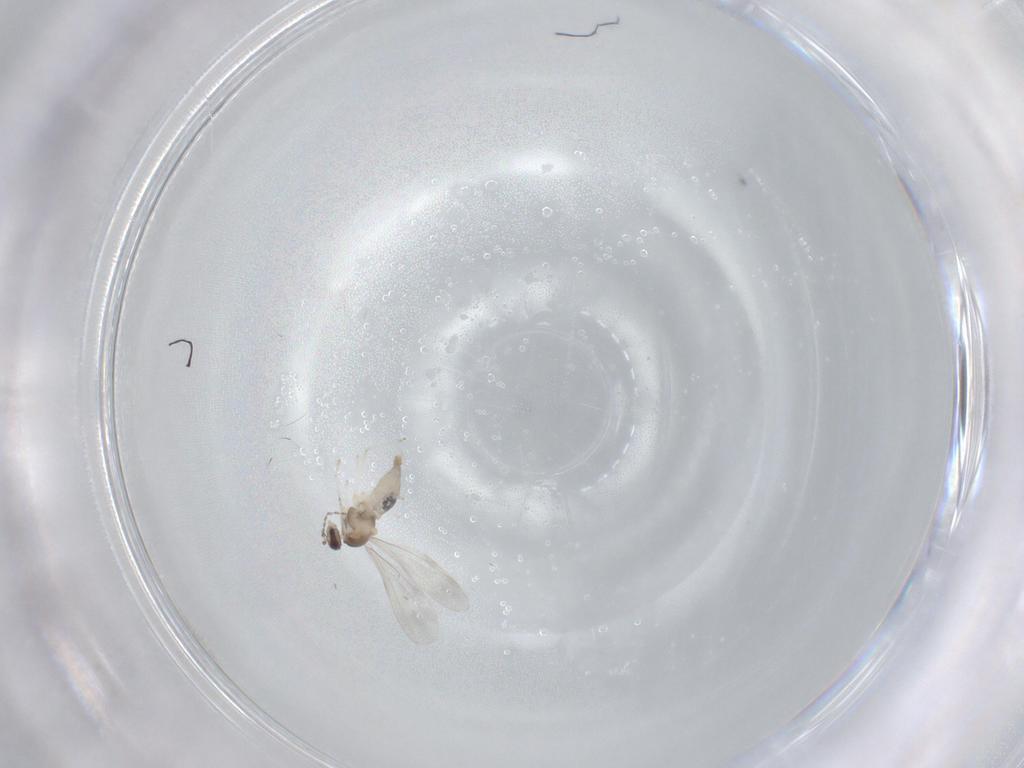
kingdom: Animalia
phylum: Arthropoda
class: Insecta
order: Diptera
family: Cecidomyiidae
